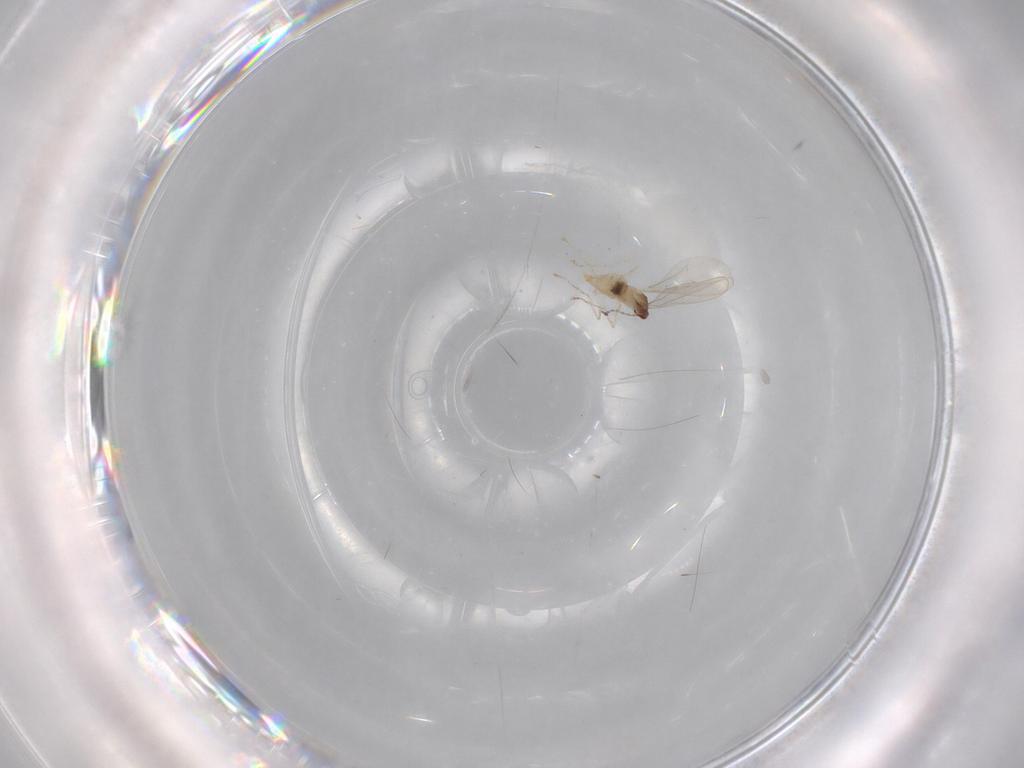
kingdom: Animalia
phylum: Arthropoda
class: Insecta
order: Diptera
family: Cecidomyiidae
